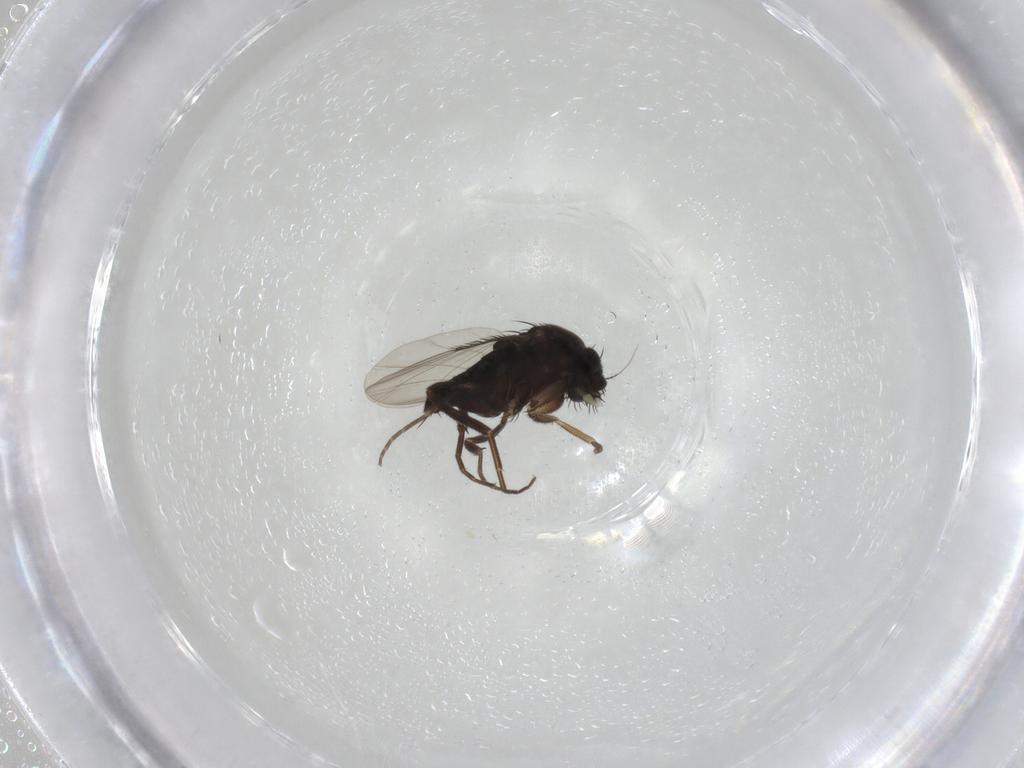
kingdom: Animalia
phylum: Arthropoda
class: Insecta
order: Diptera
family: Phoridae
